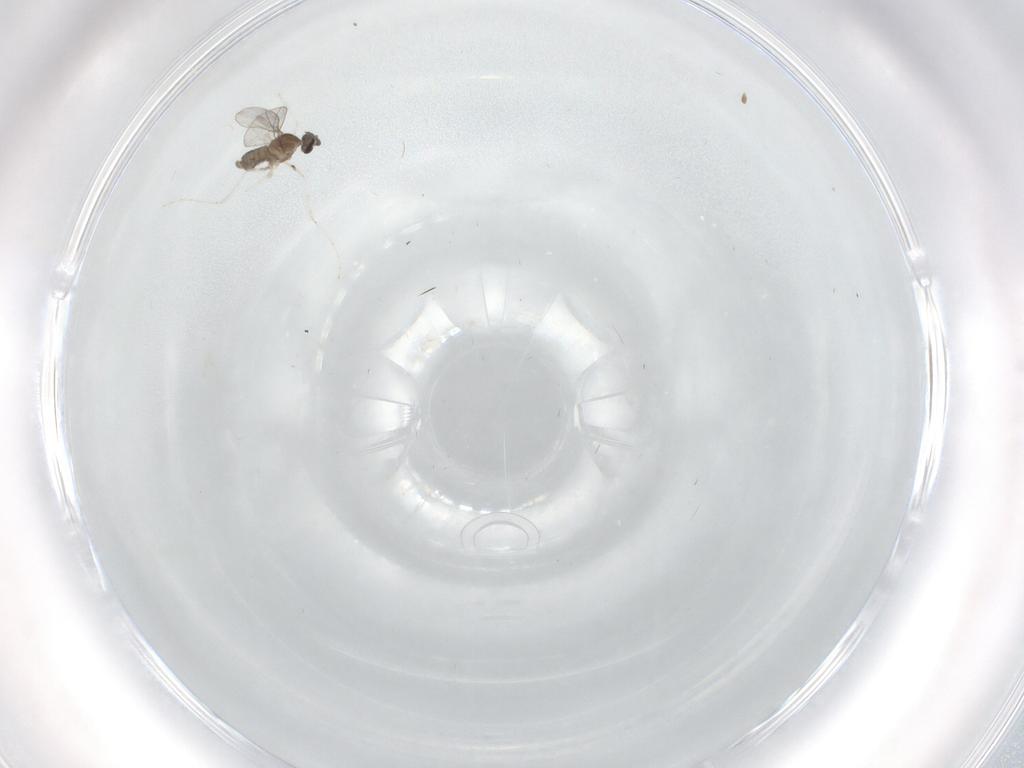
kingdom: Animalia
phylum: Arthropoda
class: Insecta
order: Diptera
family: Cecidomyiidae
